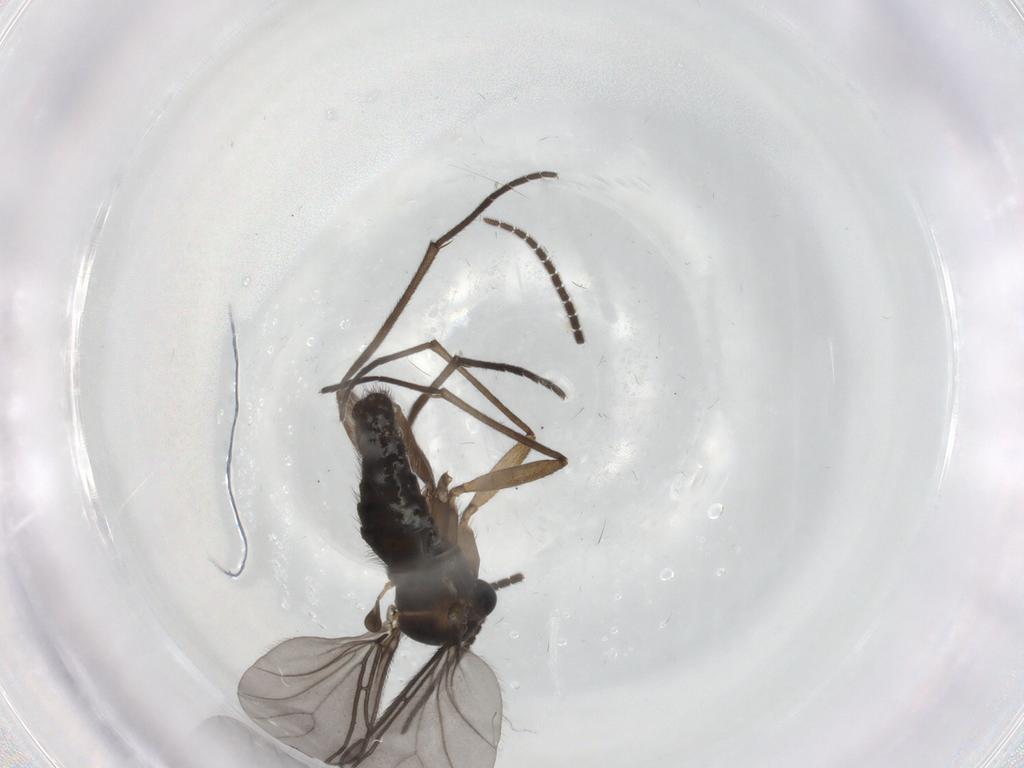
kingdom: Animalia
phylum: Arthropoda
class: Insecta
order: Diptera
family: Sciaridae
